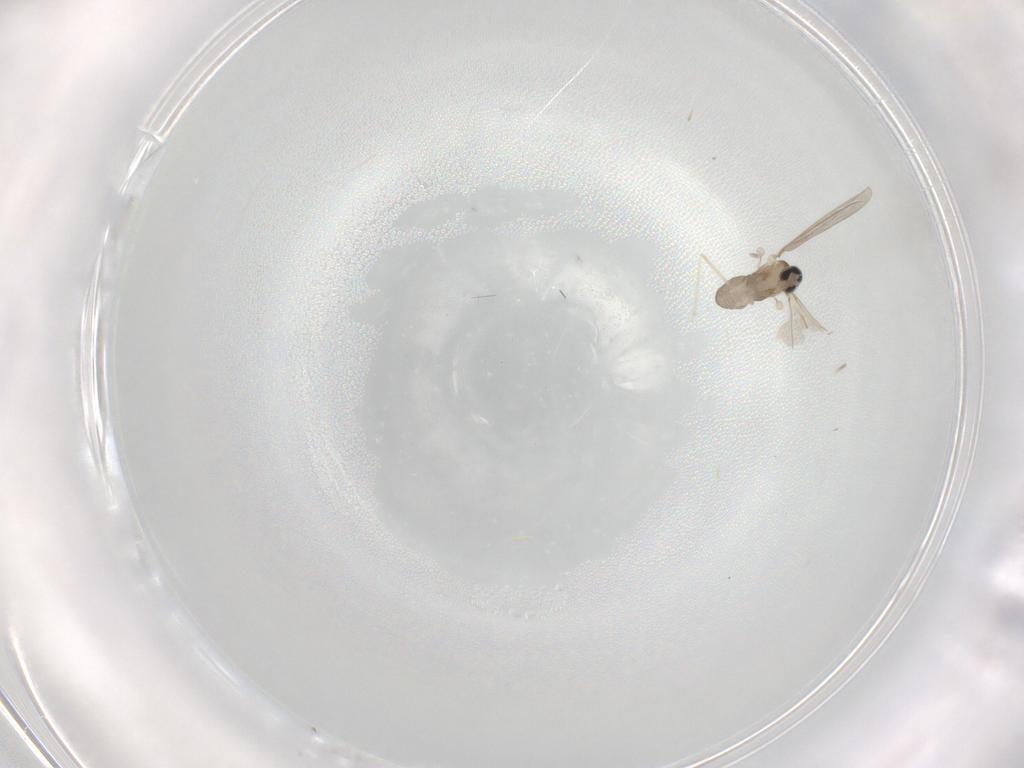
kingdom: Animalia
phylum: Arthropoda
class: Insecta
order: Diptera
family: Cecidomyiidae
